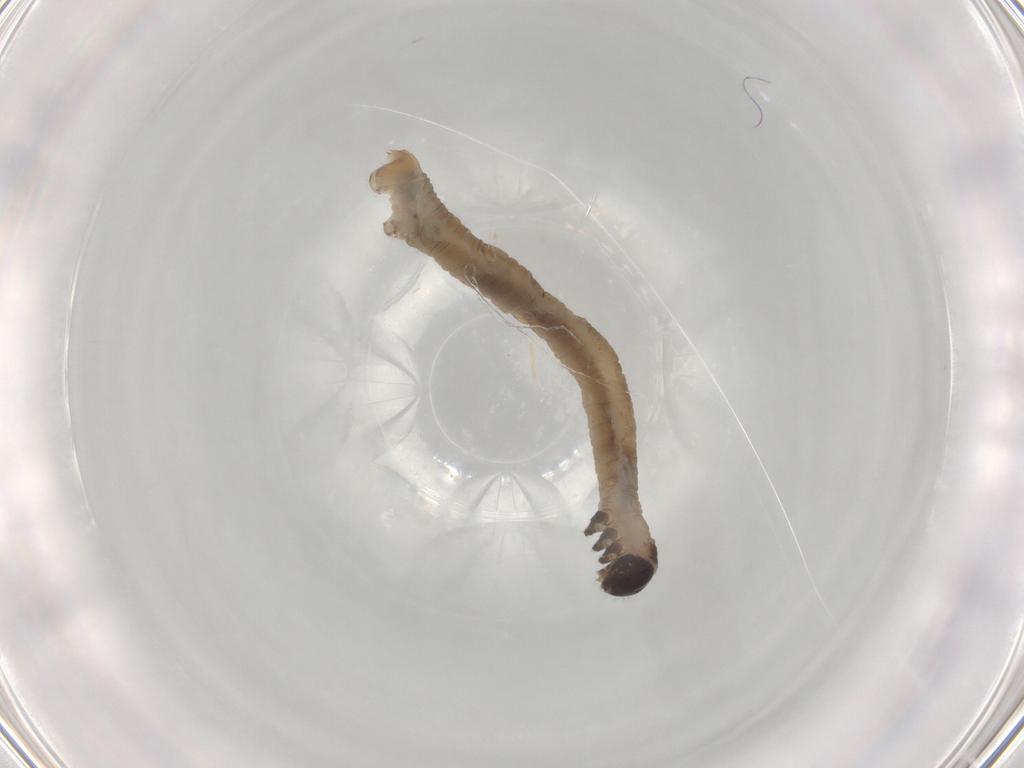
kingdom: Animalia
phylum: Arthropoda
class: Insecta
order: Lepidoptera
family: Geometridae
